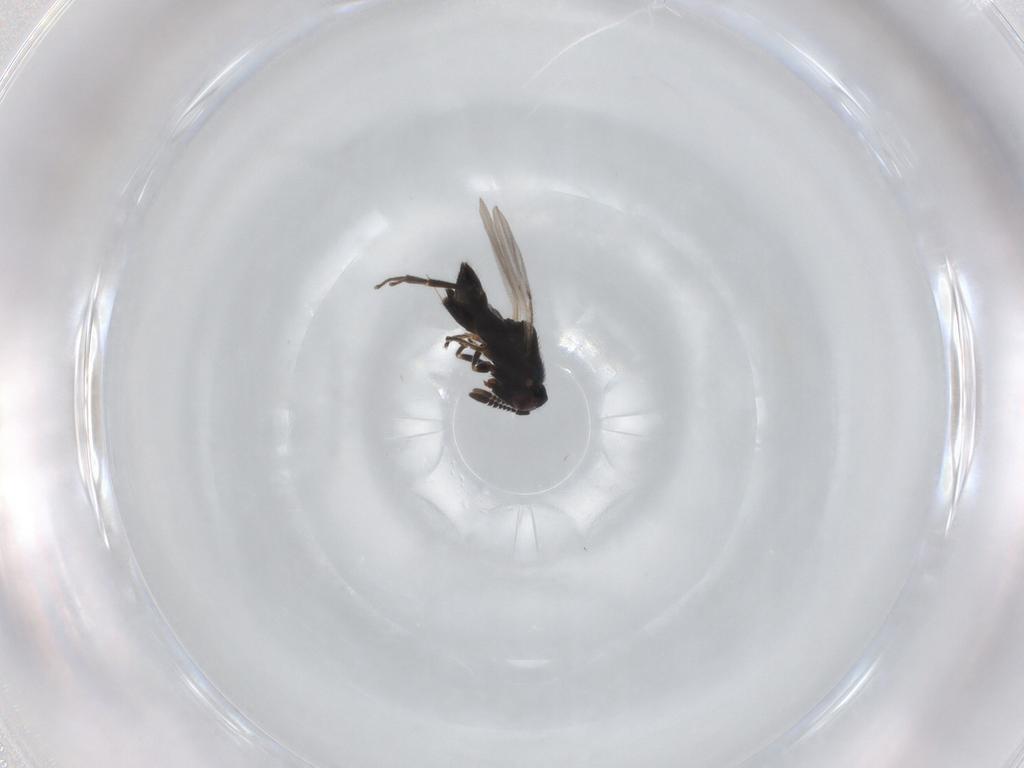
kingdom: Animalia
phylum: Arthropoda
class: Insecta
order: Hymenoptera
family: Encyrtidae
